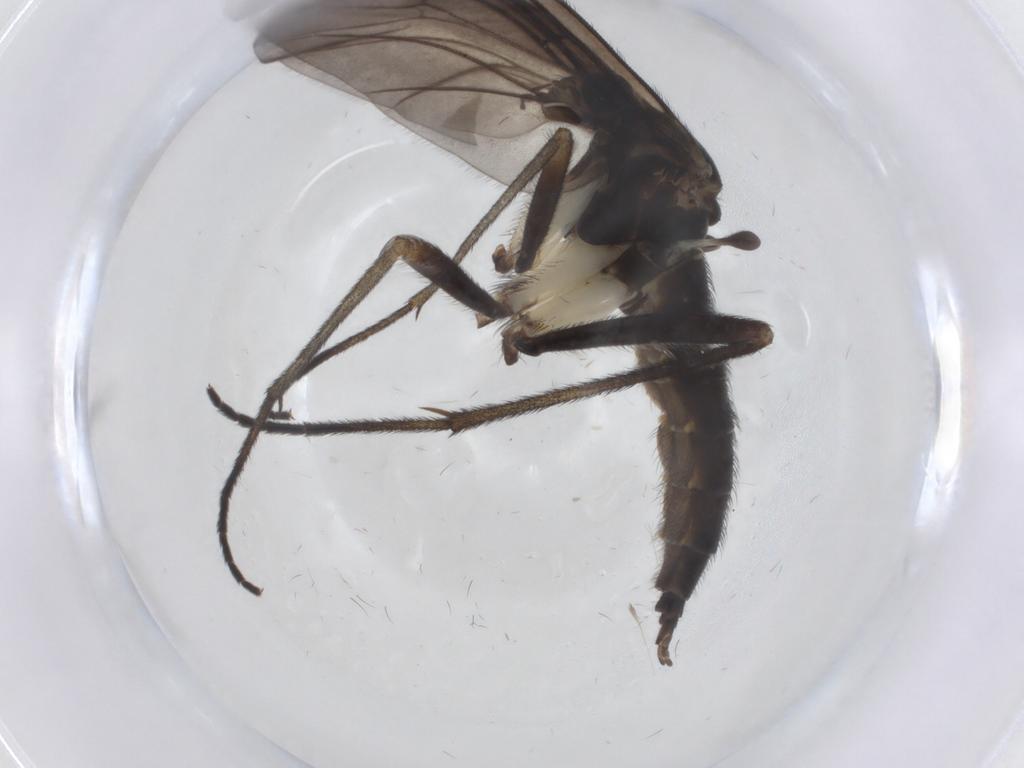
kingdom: Animalia
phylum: Arthropoda
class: Insecta
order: Diptera
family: Sciaridae
